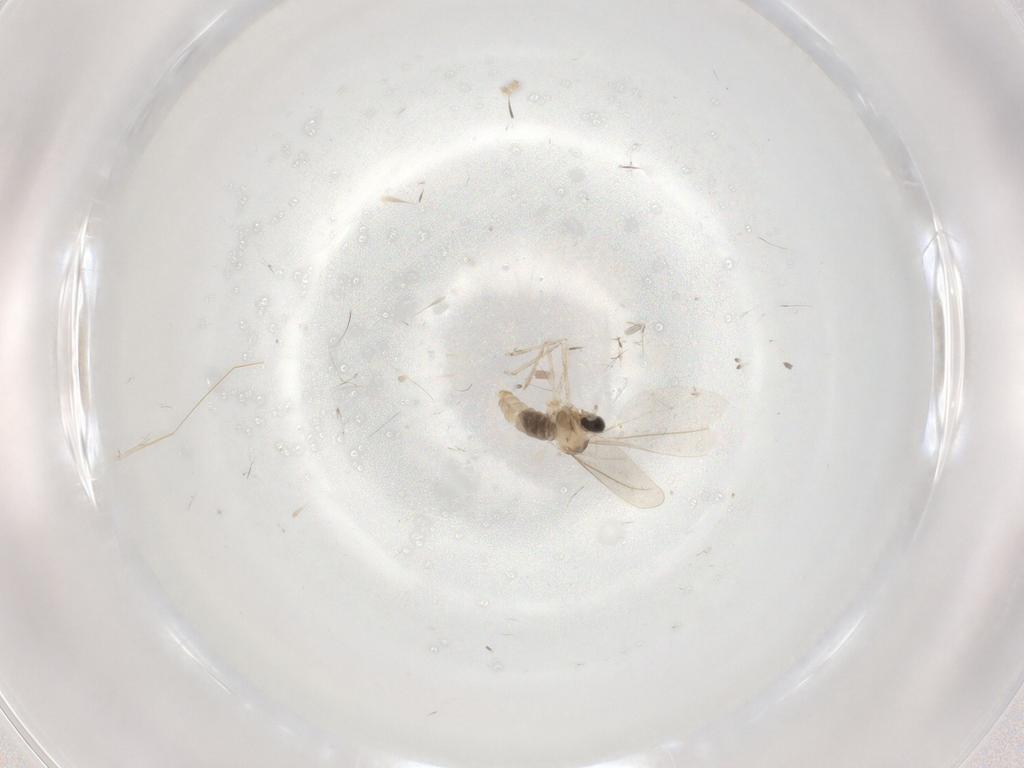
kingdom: Animalia
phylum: Arthropoda
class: Insecta
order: Diptera
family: Cecidomyiidae
